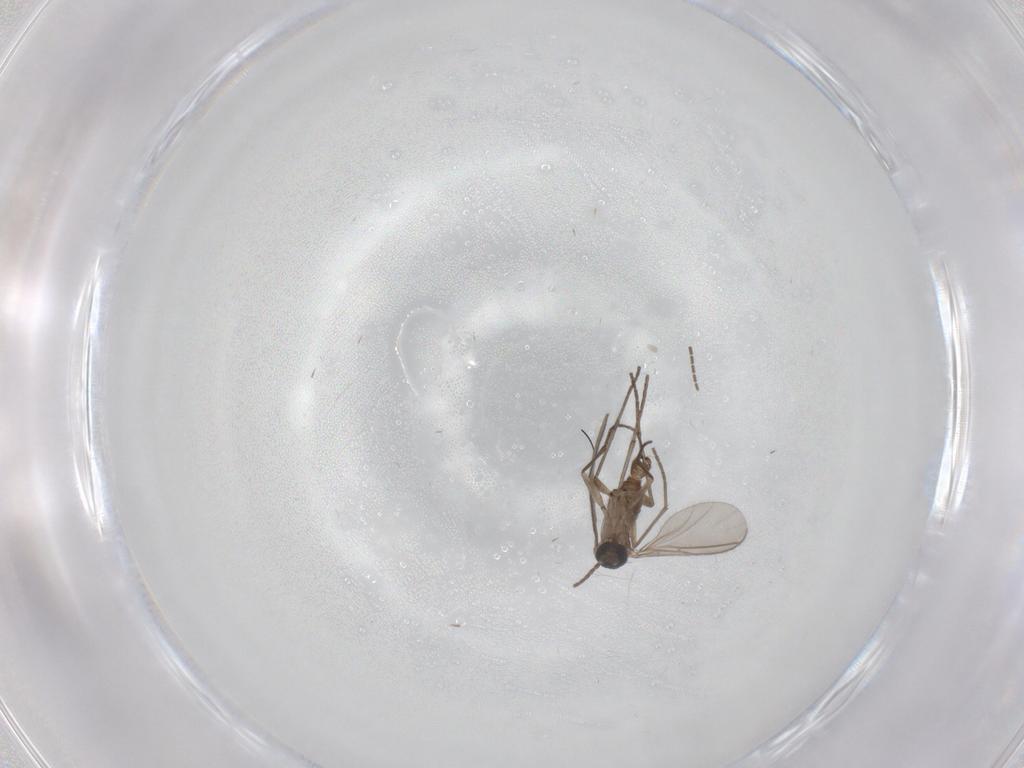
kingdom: Animalia
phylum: Arthropoda
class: Insecta
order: Diptera
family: Sciaridae
